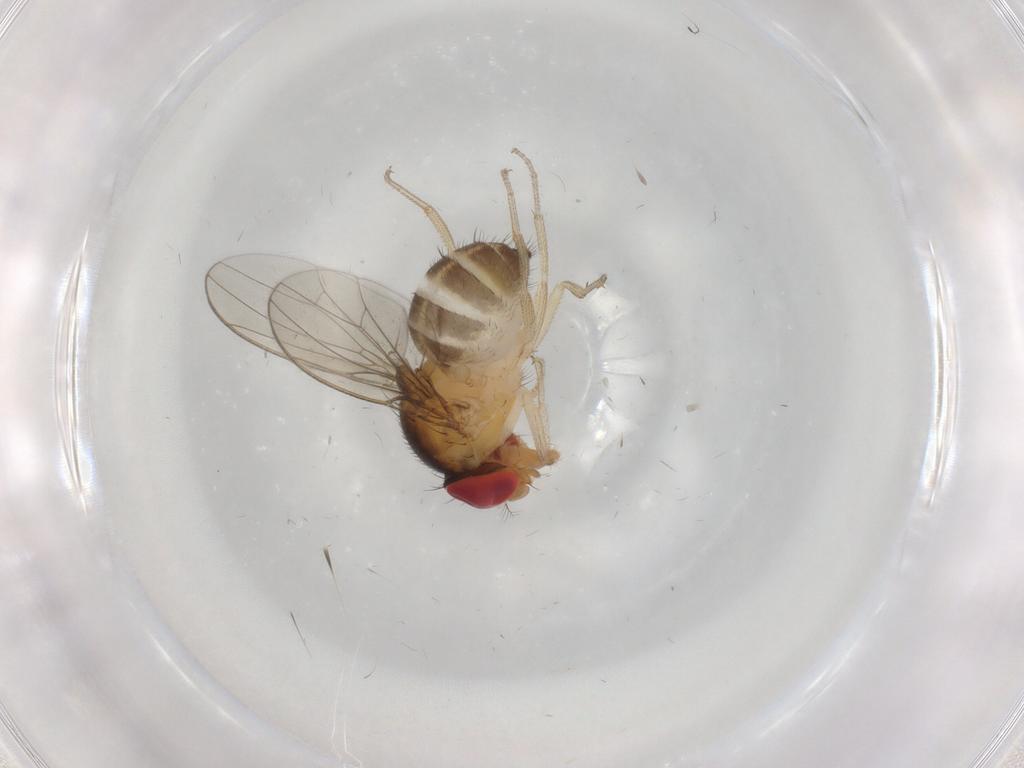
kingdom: Animalia
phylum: Arthropoda
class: Insecta
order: Diptera
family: Drosophilidae
